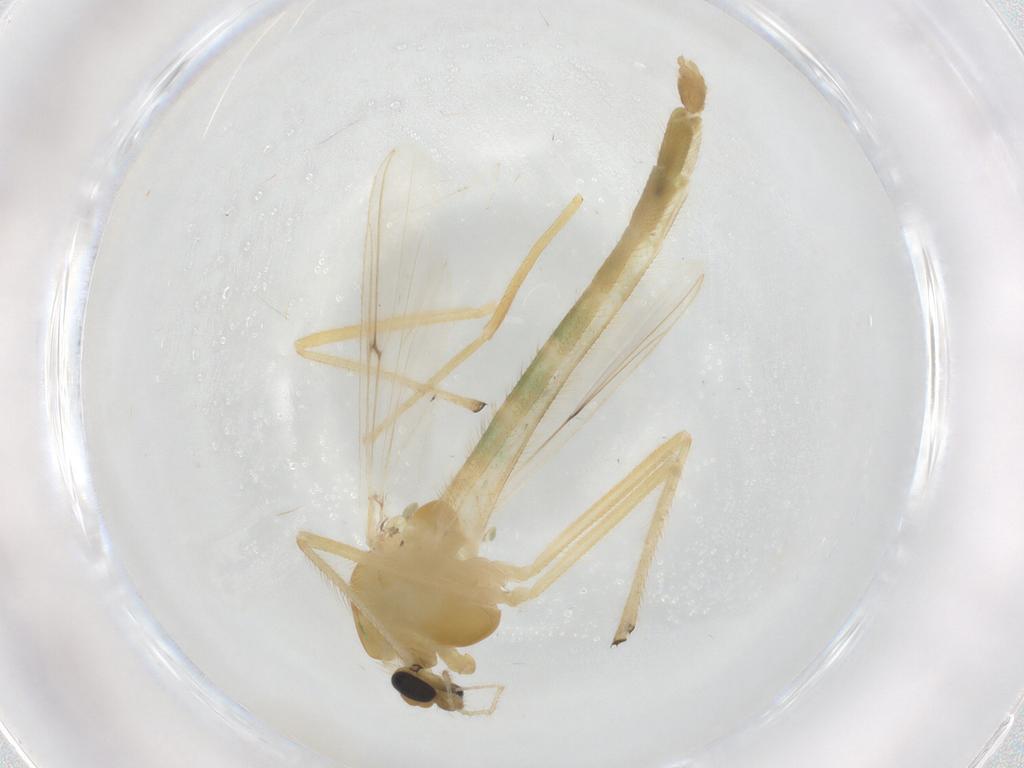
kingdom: Animalia
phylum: Arthropoda
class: Insecta
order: Diptera
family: Chironomidae
